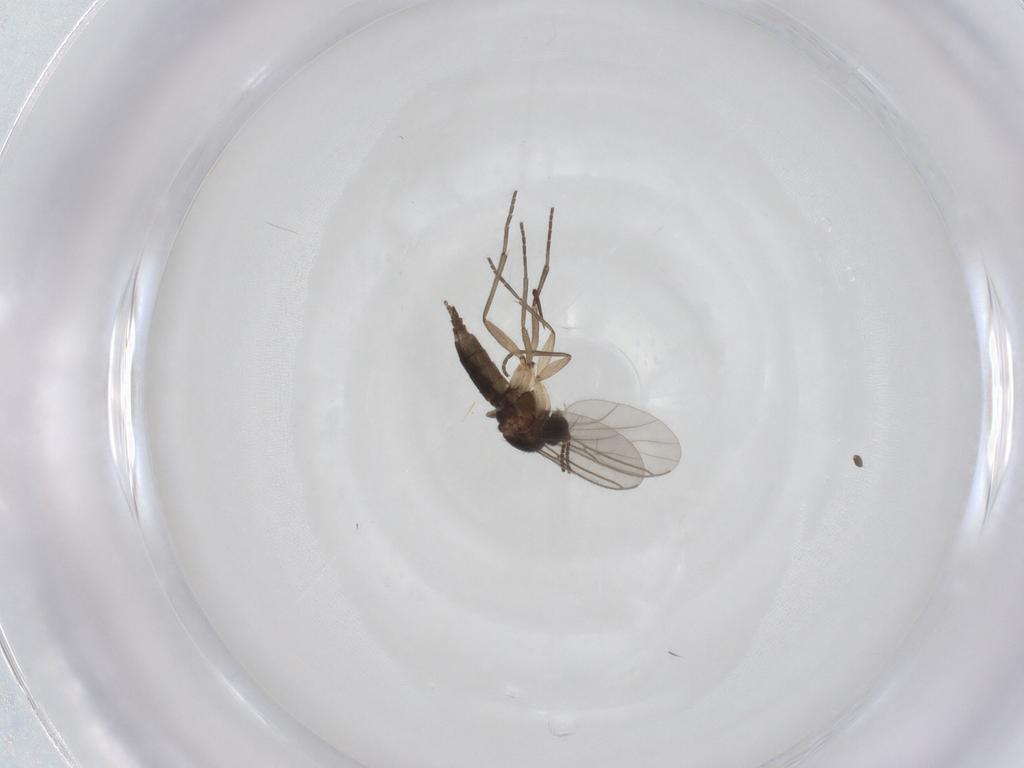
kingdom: Animalia
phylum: Arthropoda
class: Insecta
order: Diptera
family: Sciaridae
